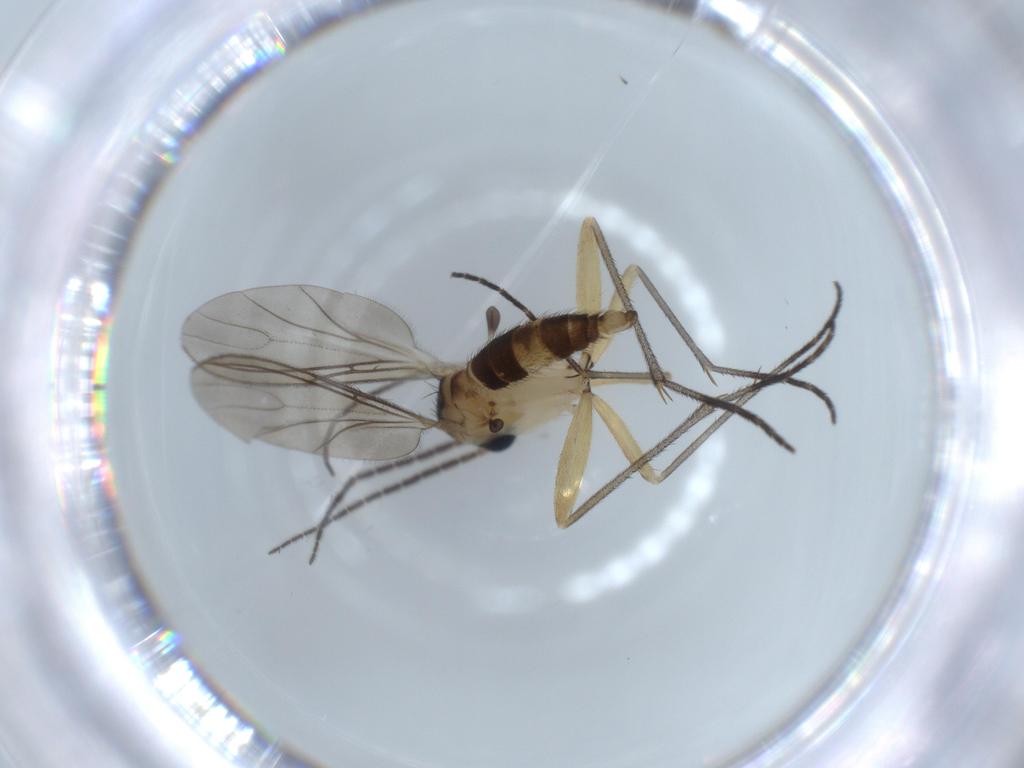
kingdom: Animalia
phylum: Arthropoda
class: Insecta
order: Diptera
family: Sciaridae
